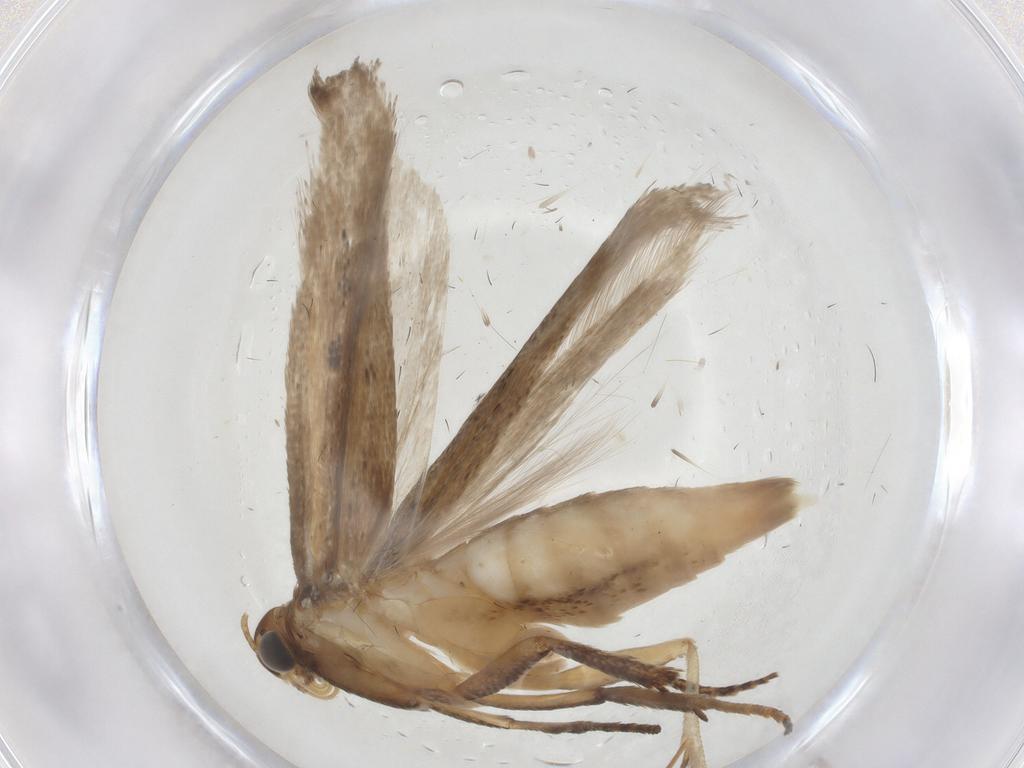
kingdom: Animalia
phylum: Arthropoda
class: Insecta
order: Lepidoptera
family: Gelechiidae
